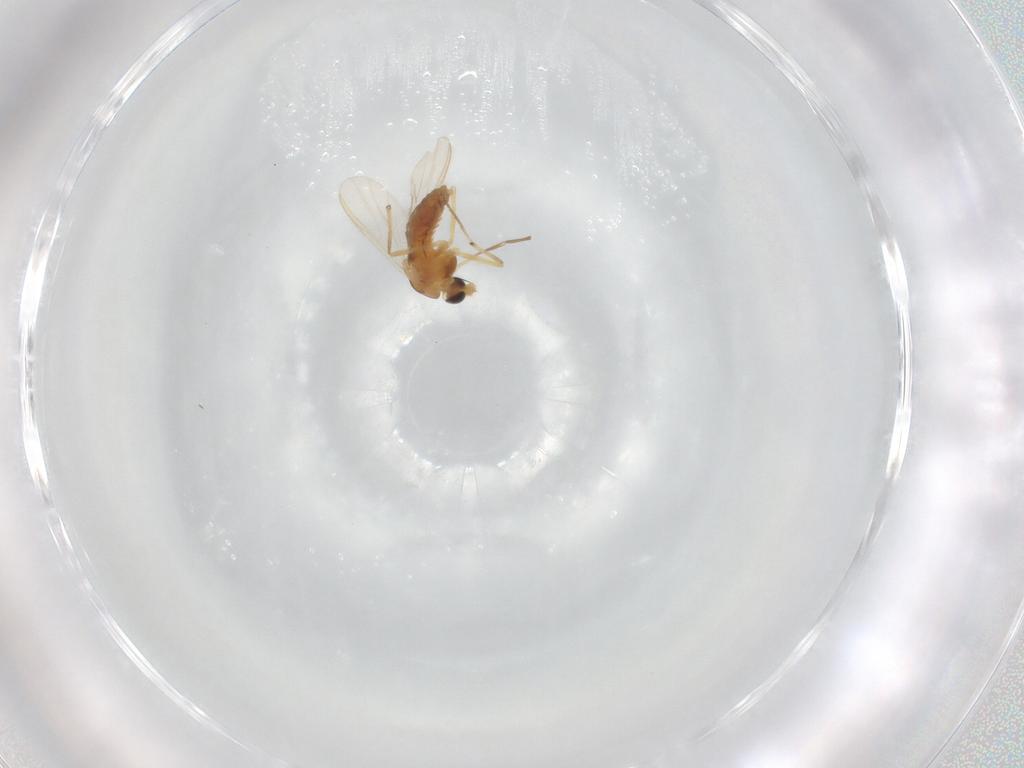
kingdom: Animalia
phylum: Arthropoda
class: Insecta
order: Diptera
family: Chironomidae
